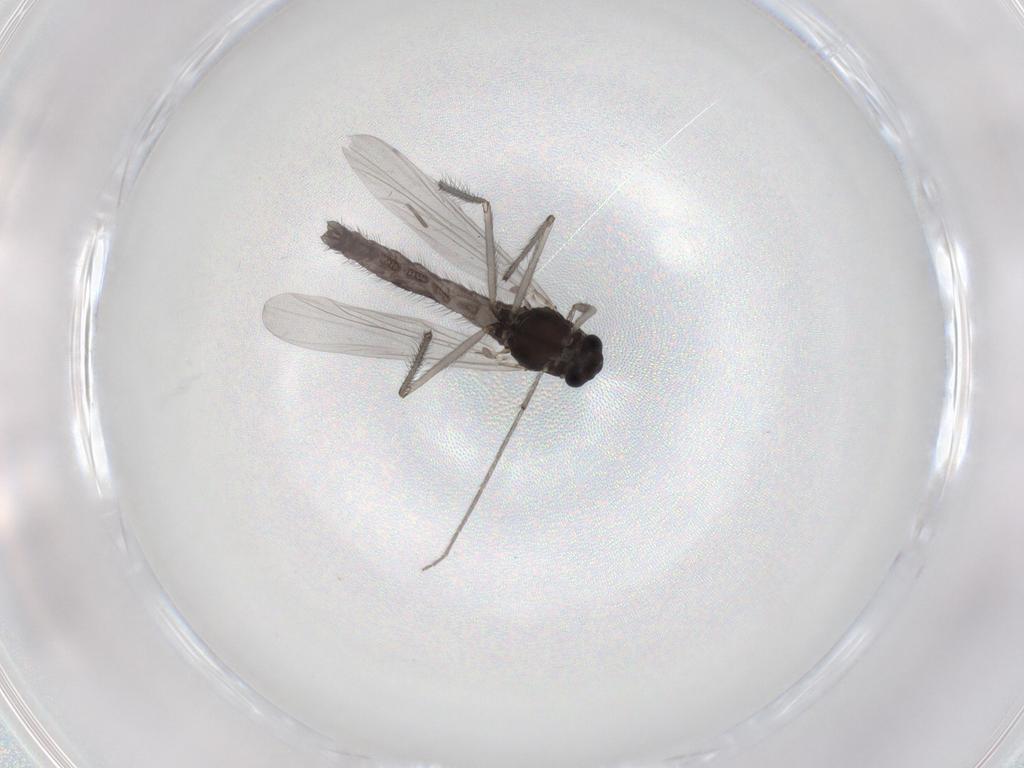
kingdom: Animalia
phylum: Arthropoda
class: Insecta
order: Diptera
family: Chironomidae
